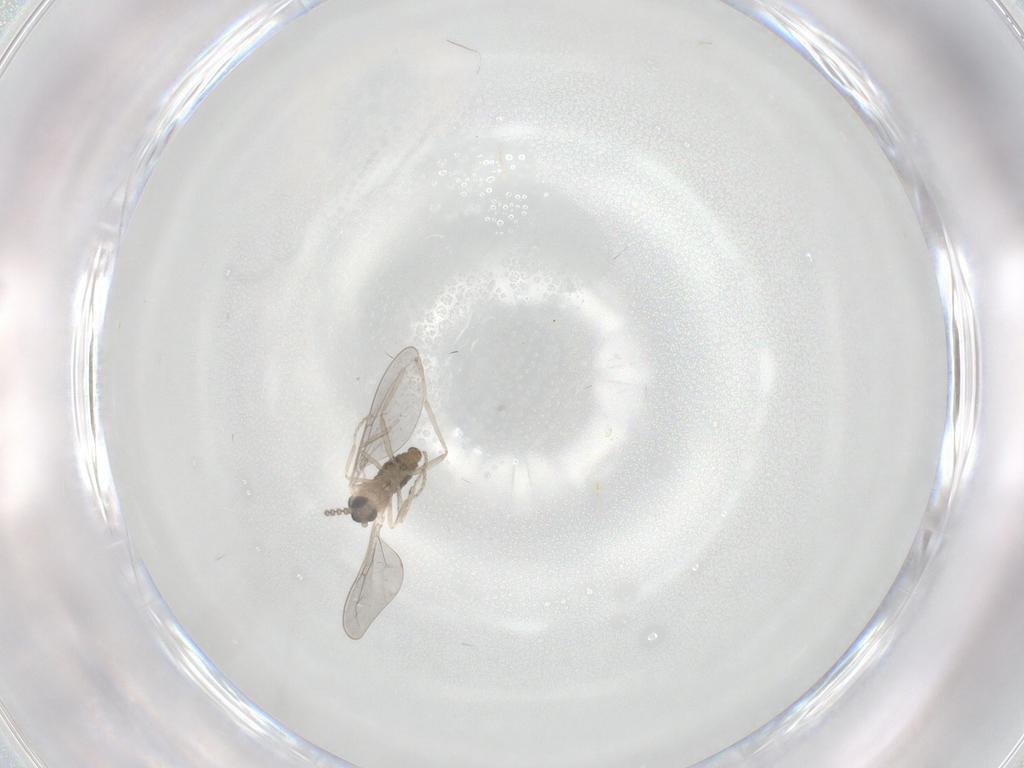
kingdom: Animalia
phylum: Arthropoda
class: Insecta
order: Diptera
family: Cecidomyiidae
